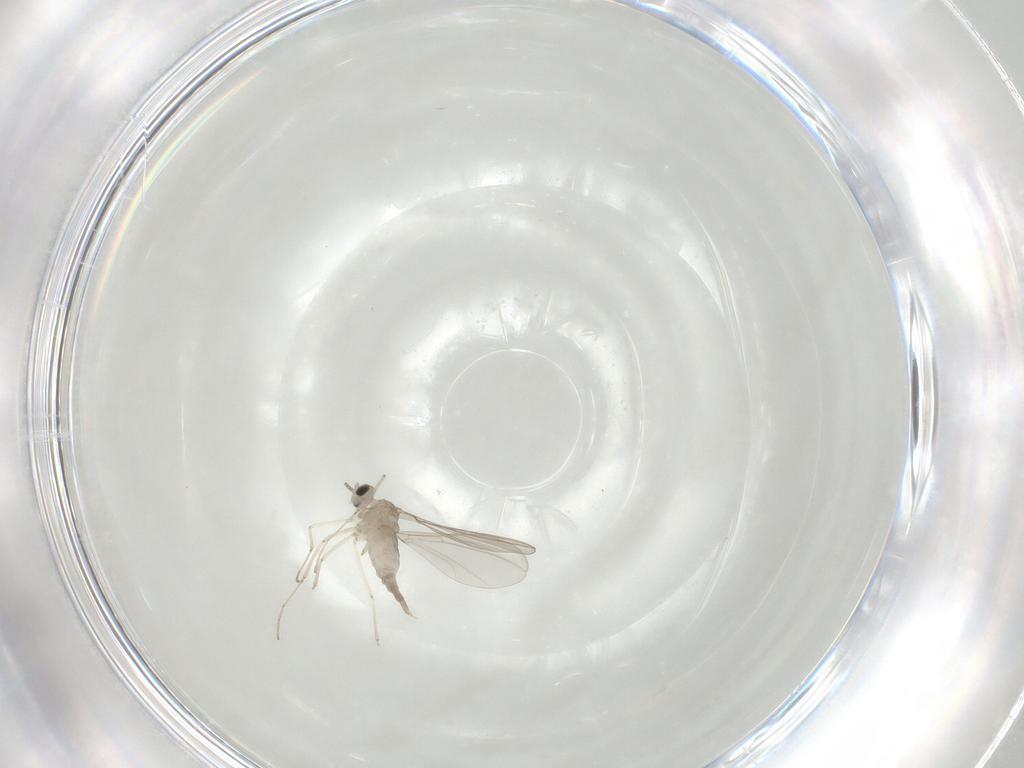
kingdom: Animalia
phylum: Arthropoda
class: Insecta
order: Diptera
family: Cecidomyiidae
